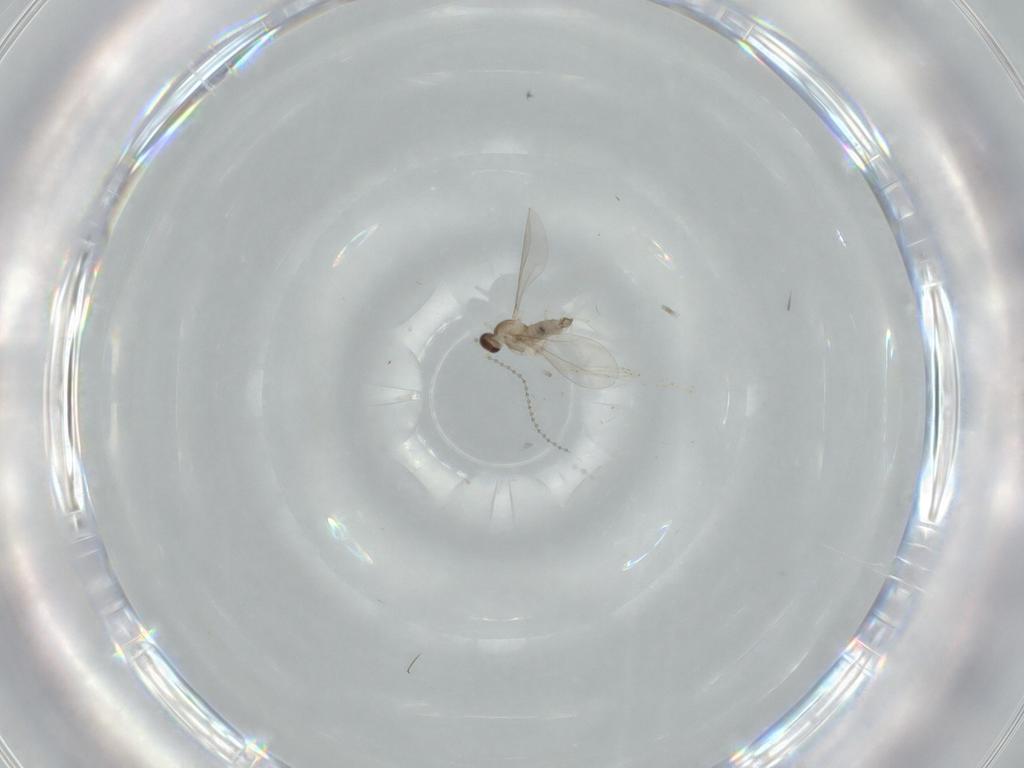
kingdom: Animalia
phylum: Arthropoda
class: Insecta
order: Diptera
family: Sciaridae
